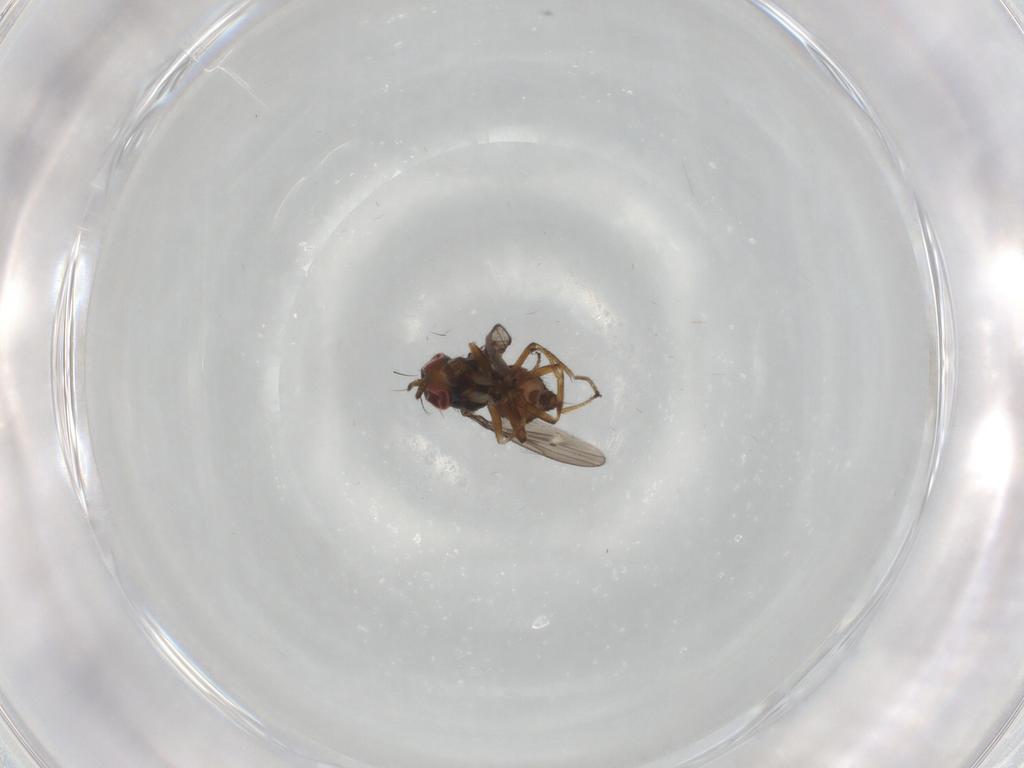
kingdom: Animalia
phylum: Arthropoda
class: Insecta
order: Diptera
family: Ephydridae
